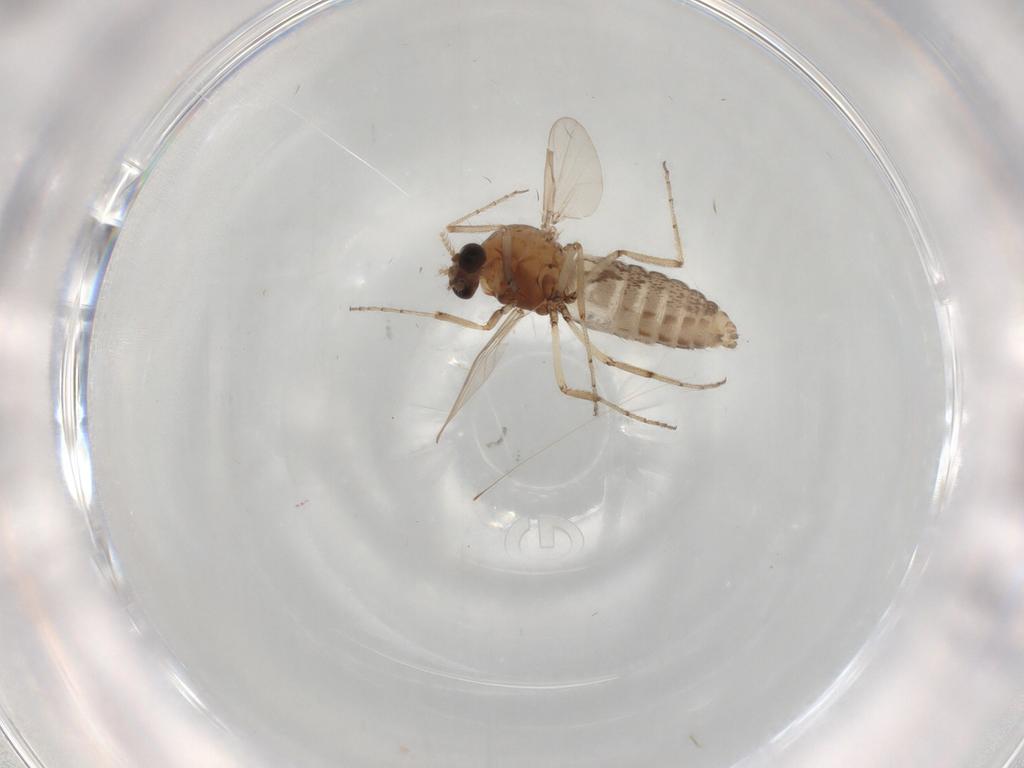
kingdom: Animalia
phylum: Arthropoda
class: Insecta
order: Diptera
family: Ceratopogonidae
